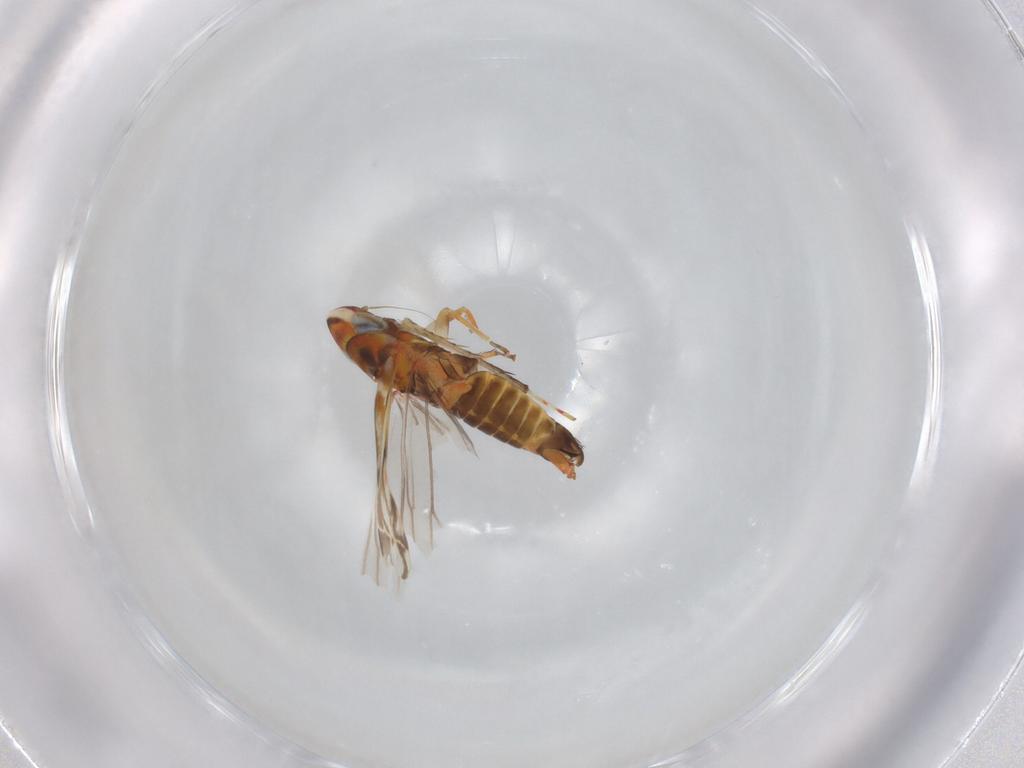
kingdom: Animalia
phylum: Arthropoda
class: Insecta
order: Hemiptera
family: Cicadellidae
